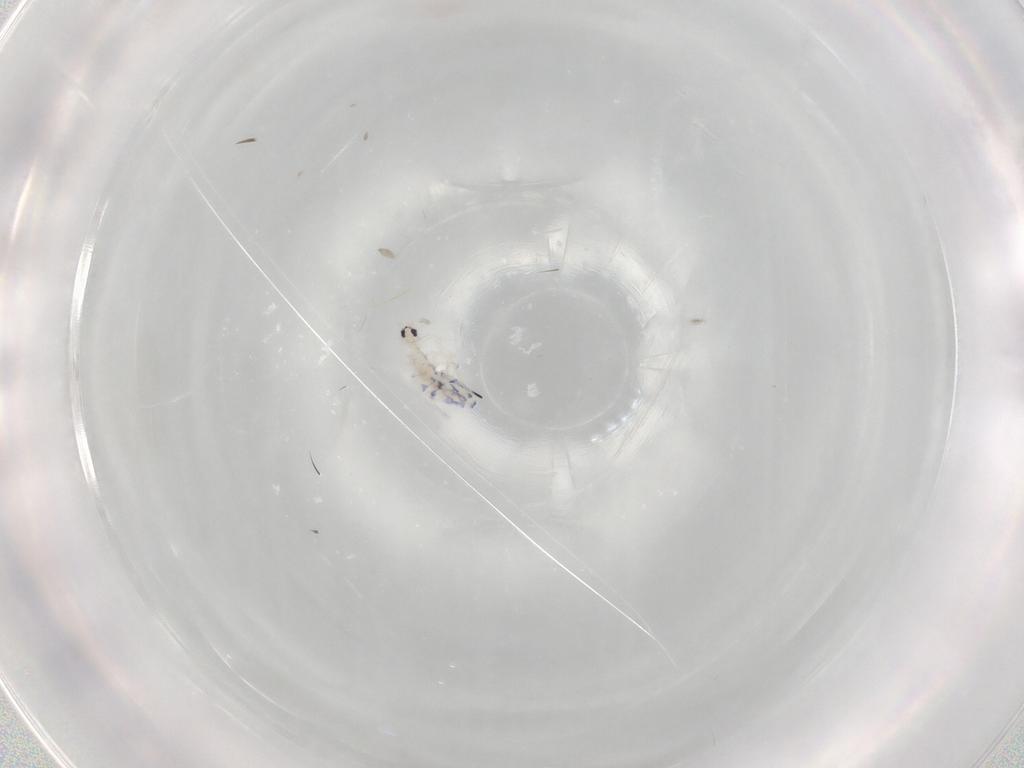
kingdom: Animalia
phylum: Arthropoda
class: Collembola
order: Entomobryomorpha
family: Entomobryidae
